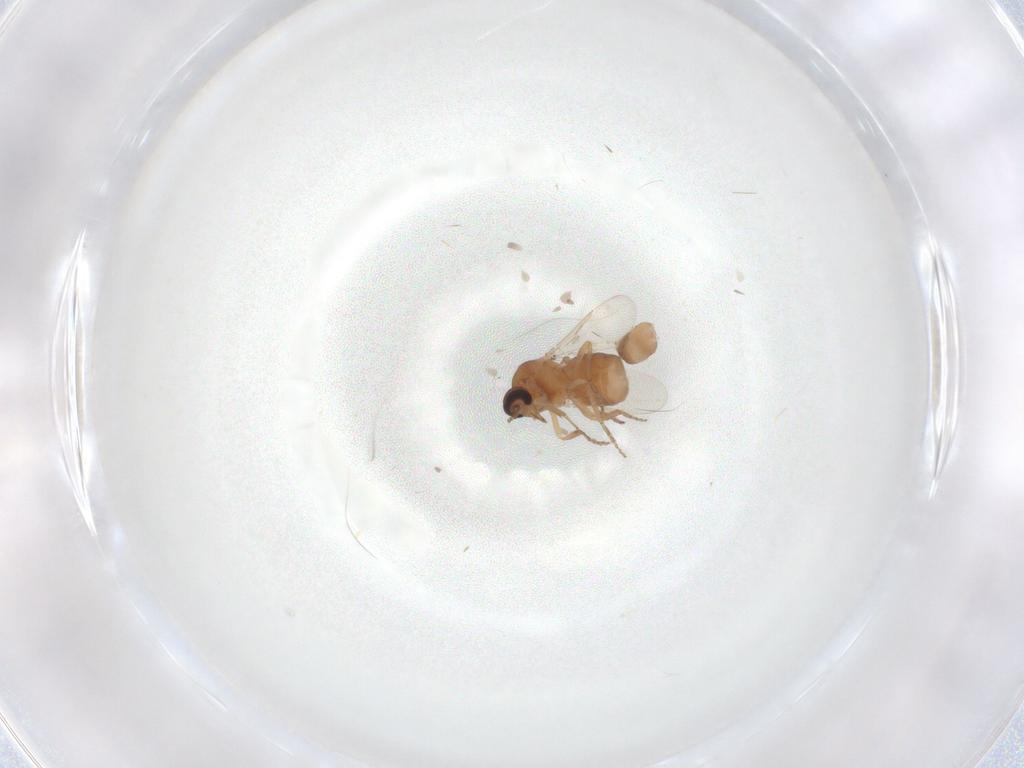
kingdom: Animalia
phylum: Arthropoda
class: Insecta
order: Diptera
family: Ceratopogonidae
